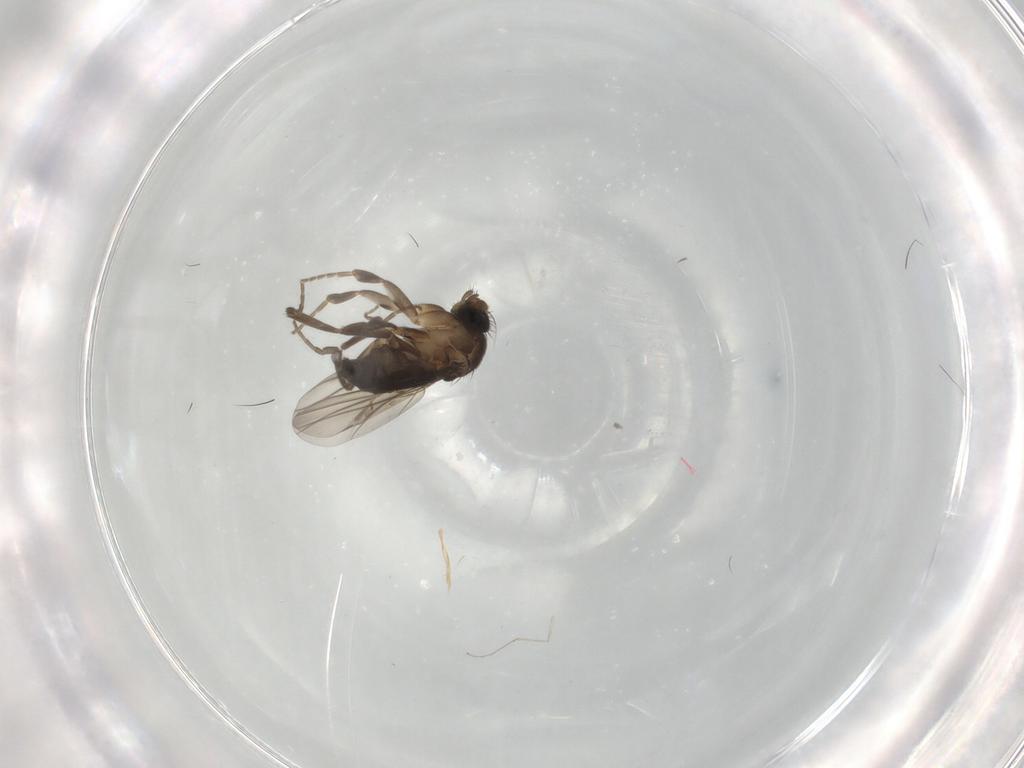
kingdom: Animalia
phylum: Arthropoda
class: Insecta
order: Diptera
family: Phoridae
